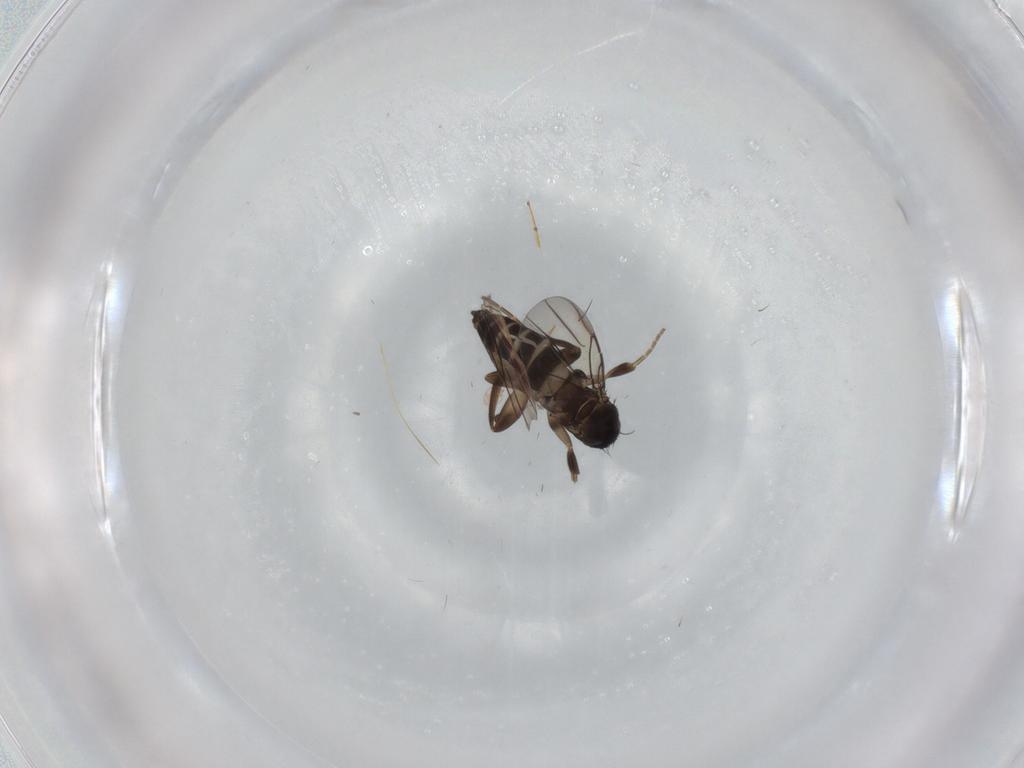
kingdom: Animalia
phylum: Arthropoda
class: Insecta
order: Diptera
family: Phoridae
